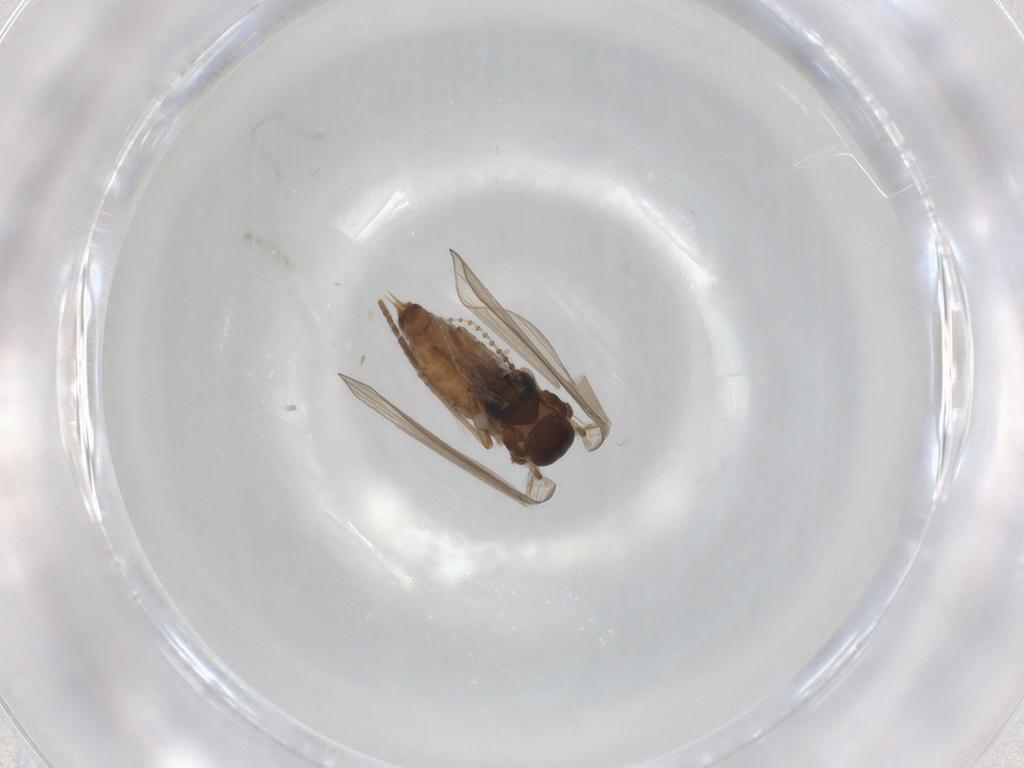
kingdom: Animalia
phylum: Arthropoda
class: Insecta
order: Diptera
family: Psychodidae
